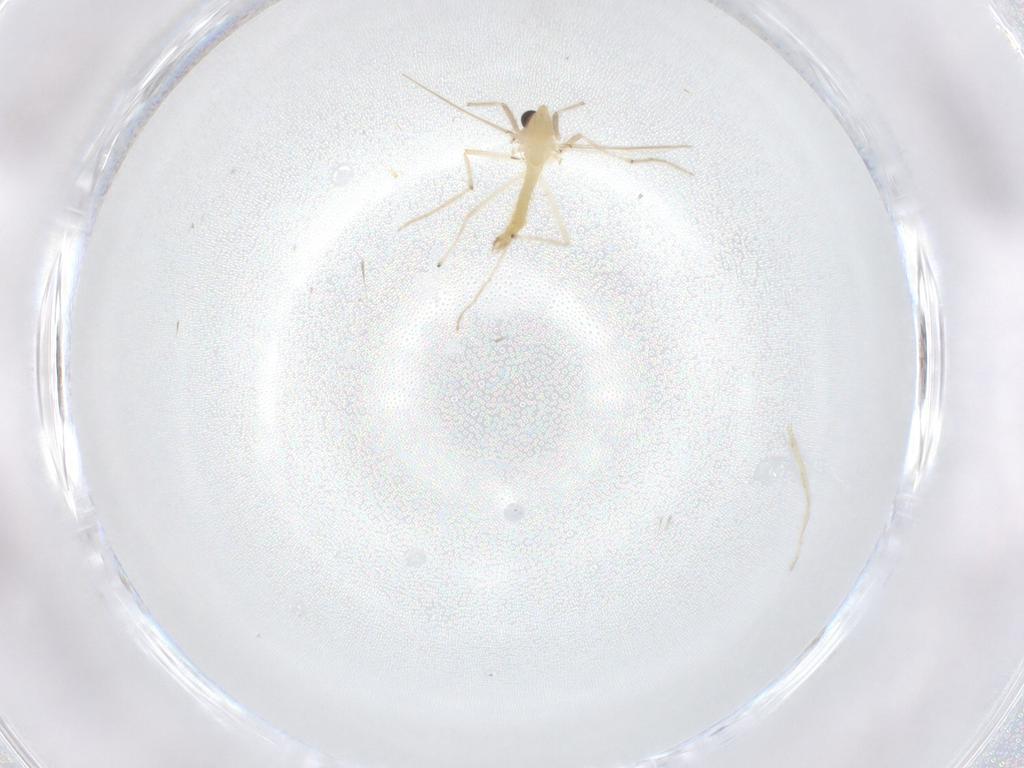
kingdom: Animalia
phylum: Arthropoda
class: Insecta
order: Diptera
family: Chironomidae
